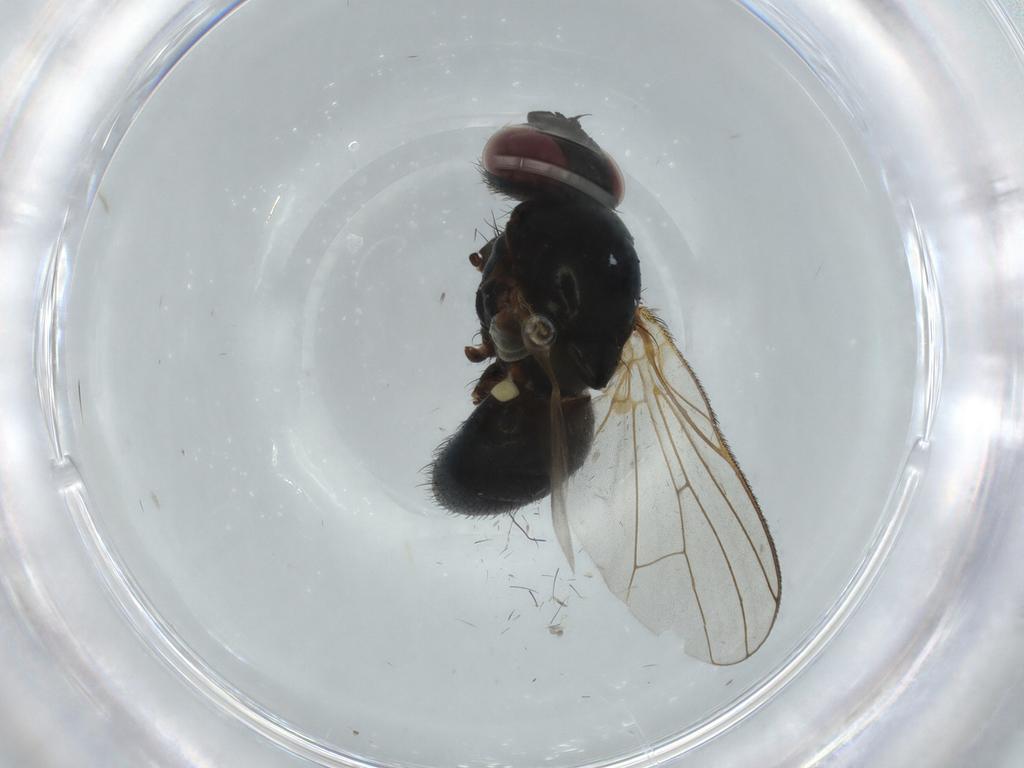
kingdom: Animalia
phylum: Arthropoda
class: Insecta
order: Diptera
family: Fannia
